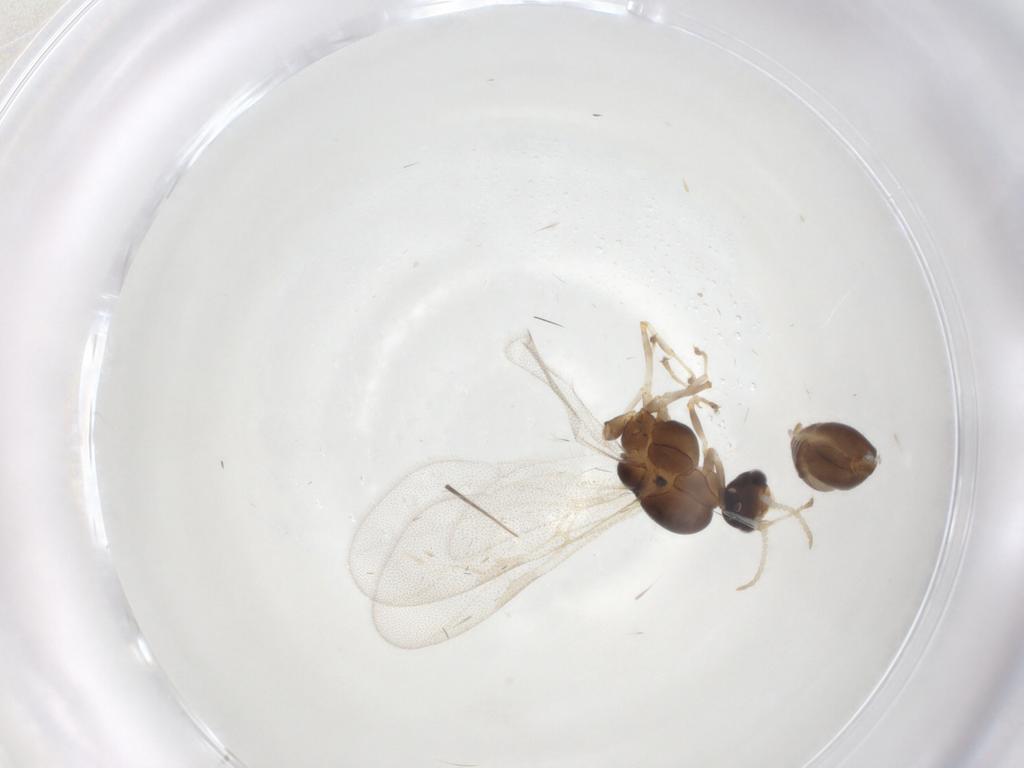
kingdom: Animalia
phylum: Arthropoda
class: Insecta
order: Hymenoptera
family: Formicidae
